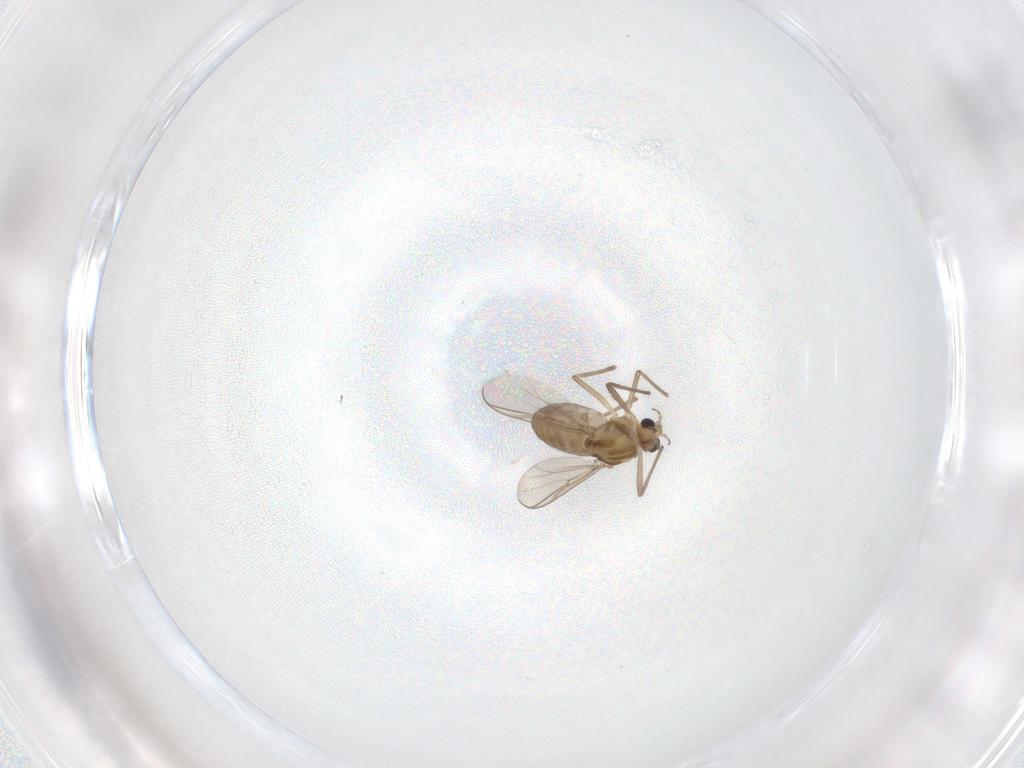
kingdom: Animalia
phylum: Arthropoda
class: Insecta
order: Diptera
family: Chironomidae
